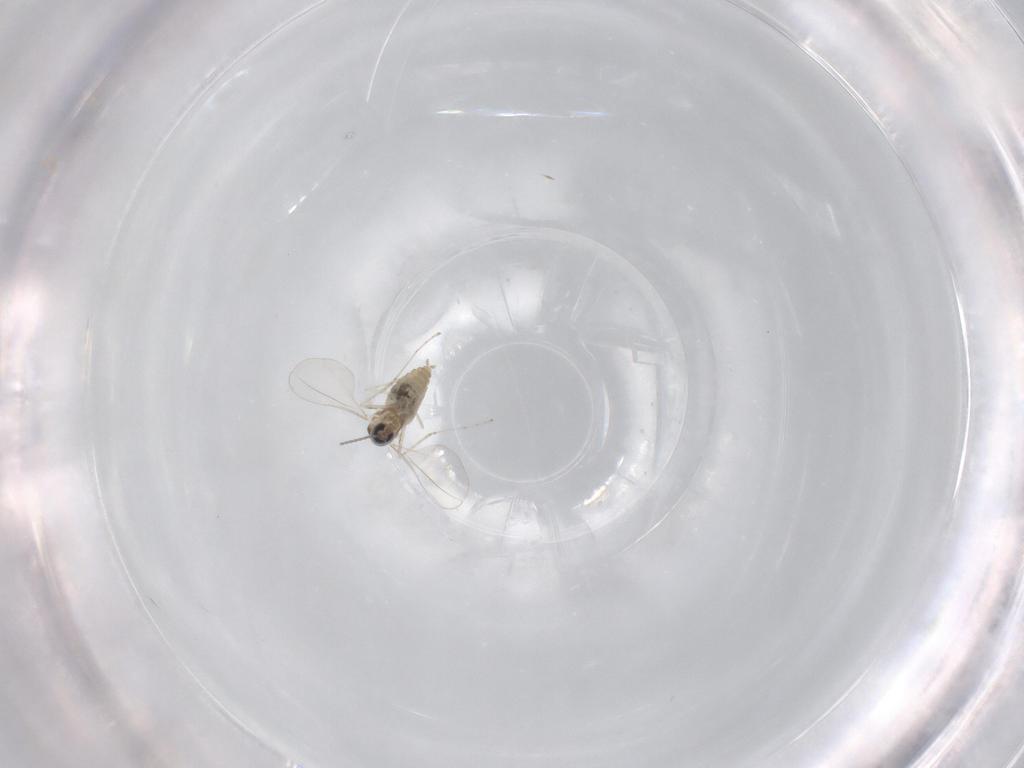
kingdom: Animalia
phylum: Arthropoda
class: Insecta
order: Diptera
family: Cecidomyiidae
